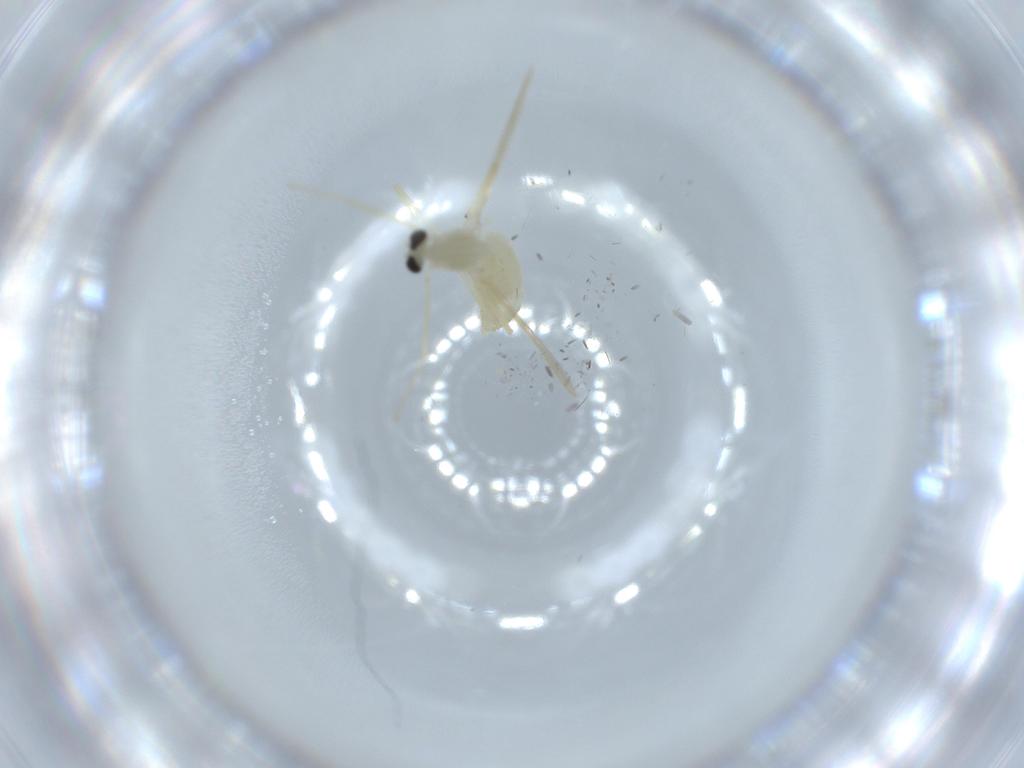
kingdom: Animalia
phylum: Arthropoda
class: Insecta
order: Diptera
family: Chironomidae
